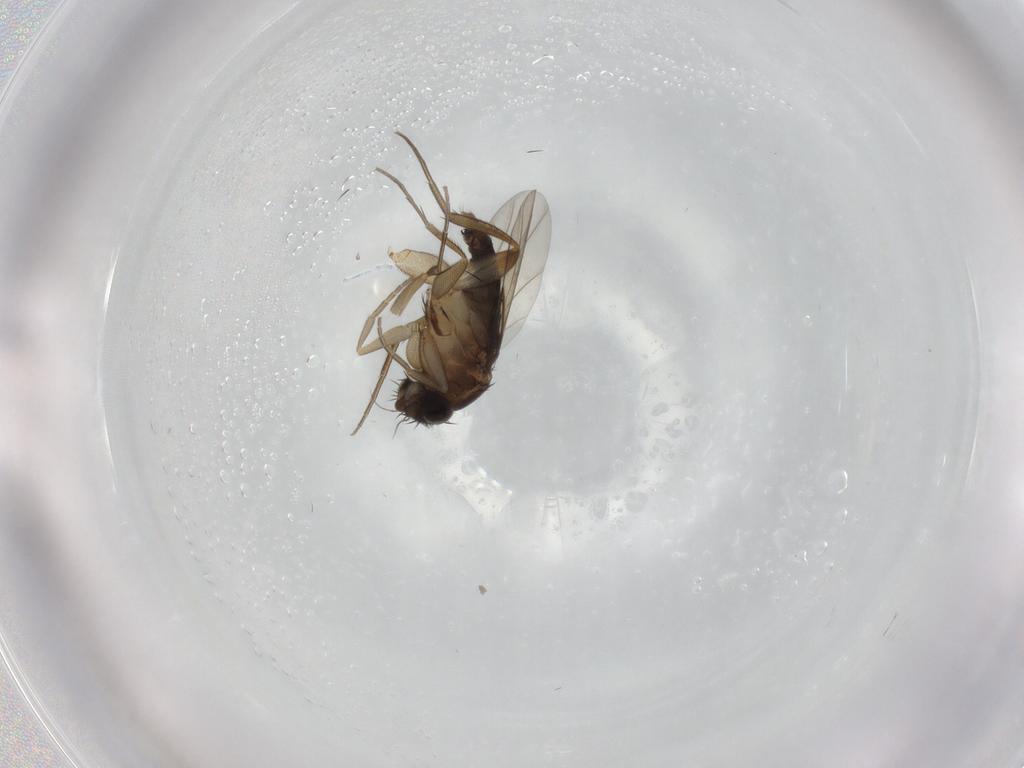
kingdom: Animalia
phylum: Arthropoda
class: Insecta
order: Diptera
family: Phoridae
